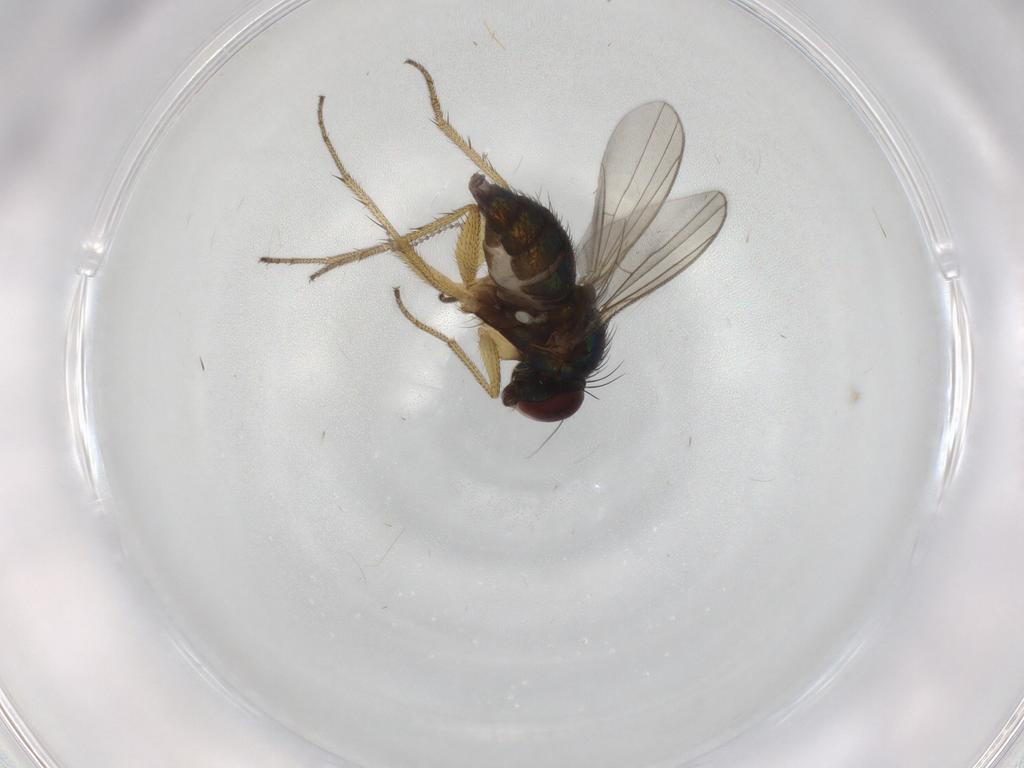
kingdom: Animalia
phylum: Arthropoda
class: Insecta
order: Diptera
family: Dolichopodidae
